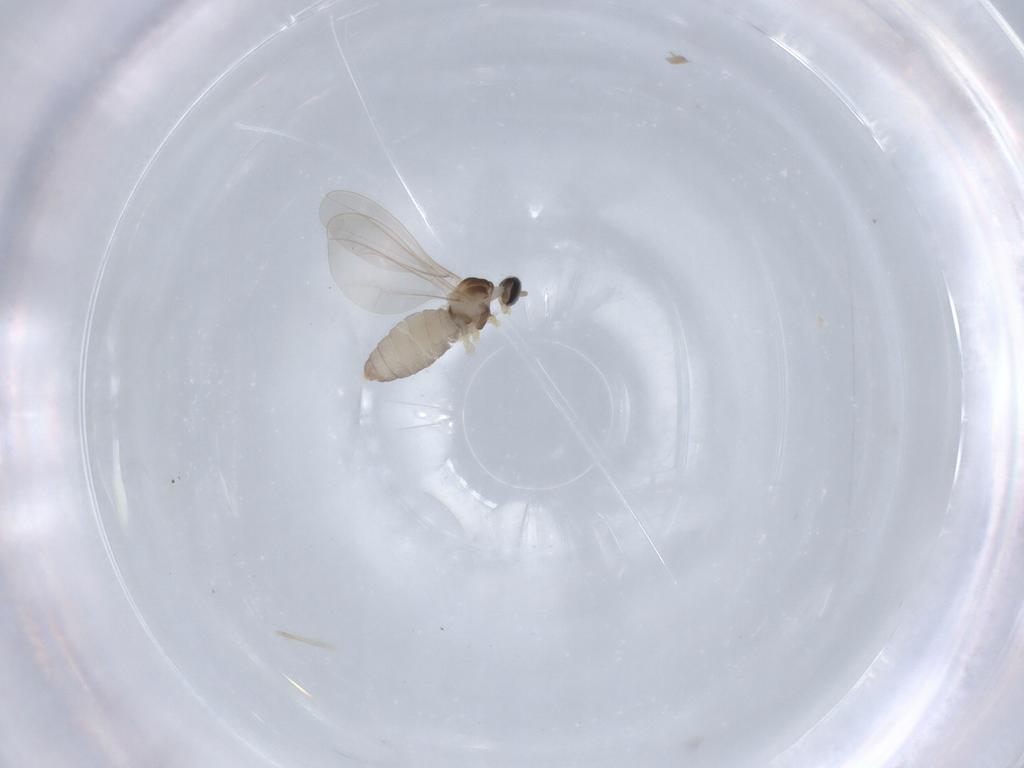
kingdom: Animalia
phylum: Arthropoda
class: Insecta
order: Diptera
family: Cecidomyiidae
